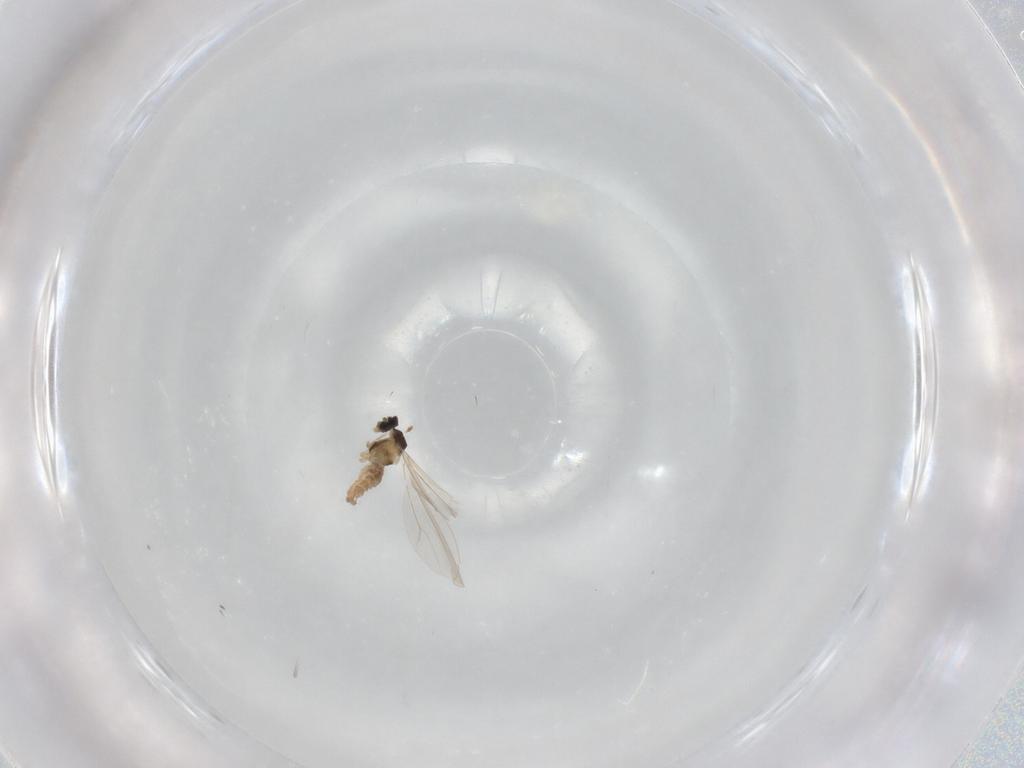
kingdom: Animalia
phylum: Arthropoda
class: Insecta
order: Diptera
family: Cecidomyiidae
